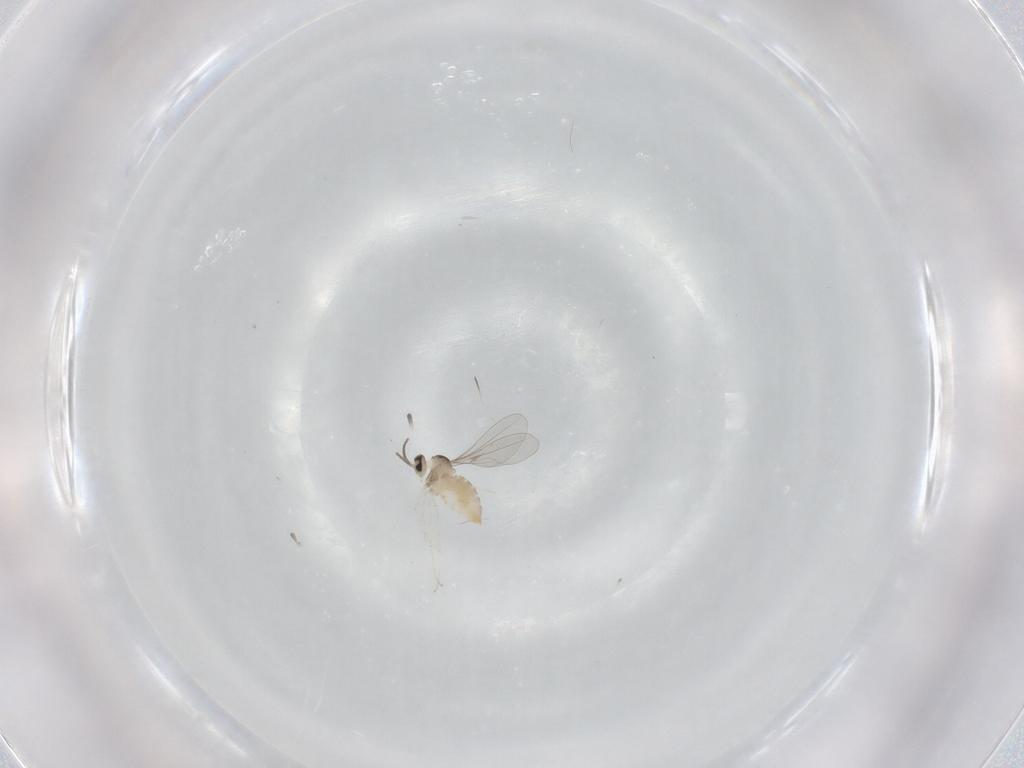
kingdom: Animalia
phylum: Arthropoda
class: Insecta
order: Diptera
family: Cecidomyiidae
